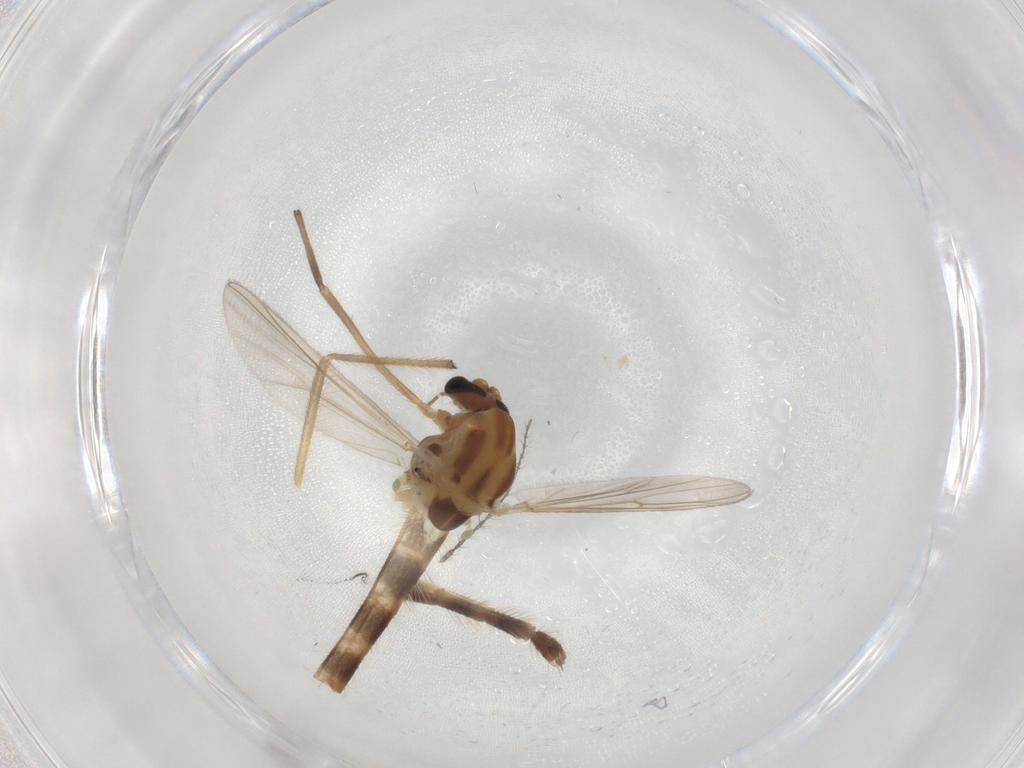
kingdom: Animalia
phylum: Arthropoda
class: Insecta
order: Diptera
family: Chironomidae
